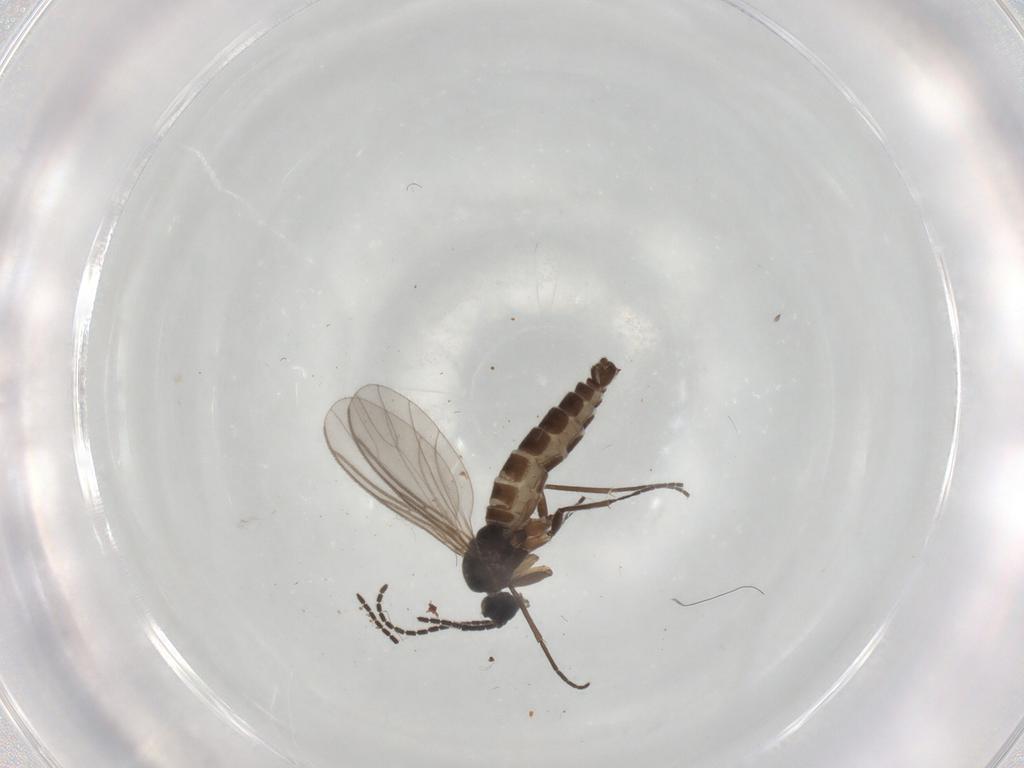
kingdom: Animalia
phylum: Arthropoda
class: Insecta
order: Diptera
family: Sciaridae
